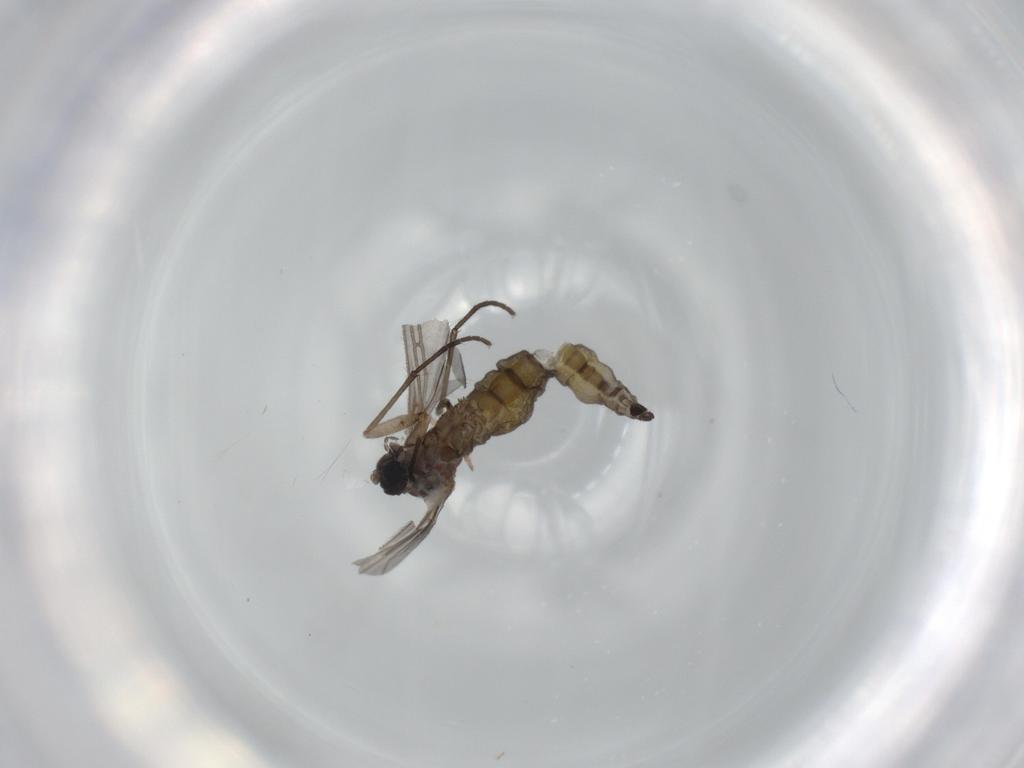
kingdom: Animalia
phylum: Arthropoda
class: Insecta
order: Diptera
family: Sciaridae
